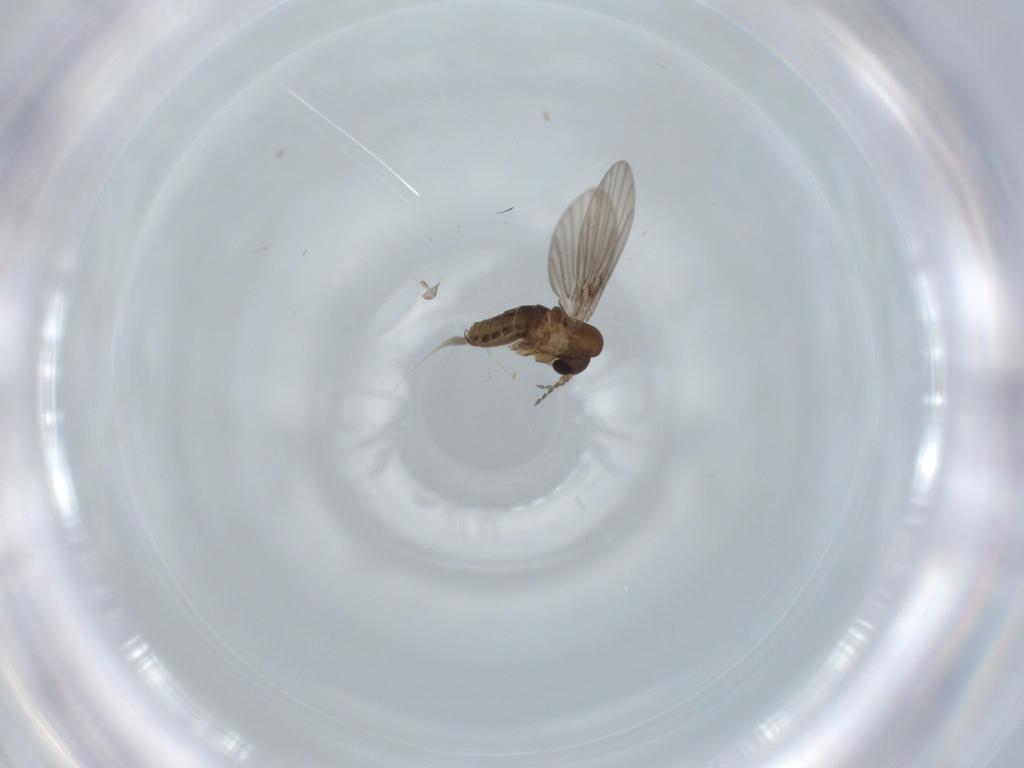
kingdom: Animalia
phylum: Arthropoda
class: Insecta
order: Diptera
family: Psychodidae
